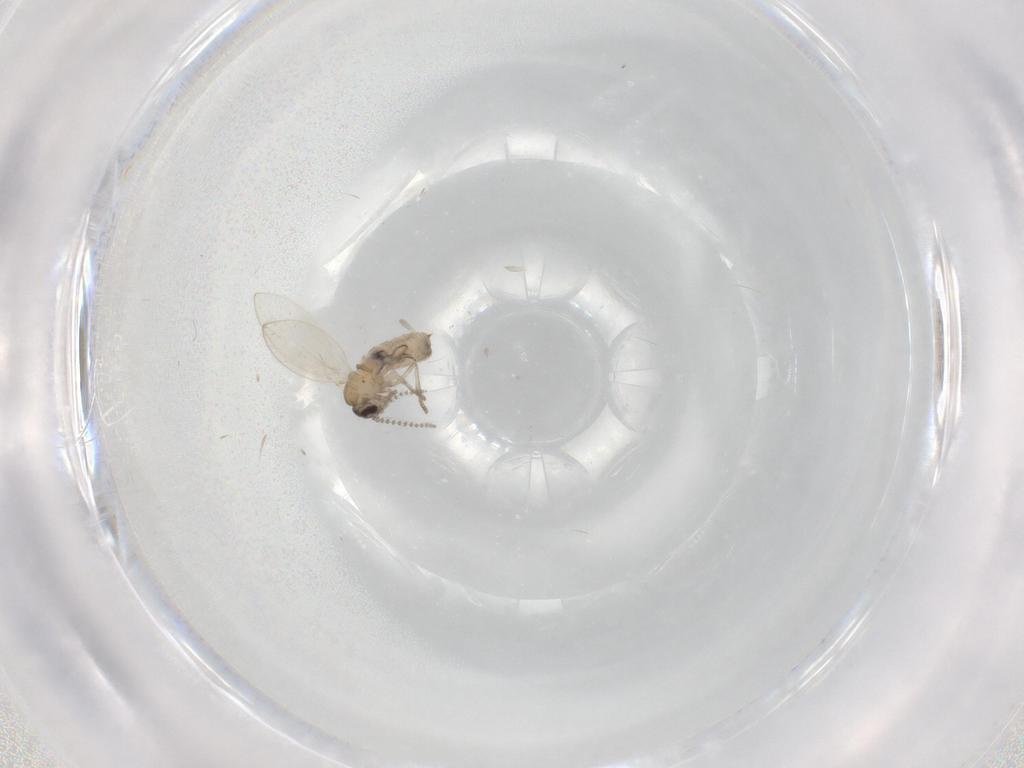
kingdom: Animalia
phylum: Arthropoda
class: Insecta
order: Diptera
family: Psychodidae
